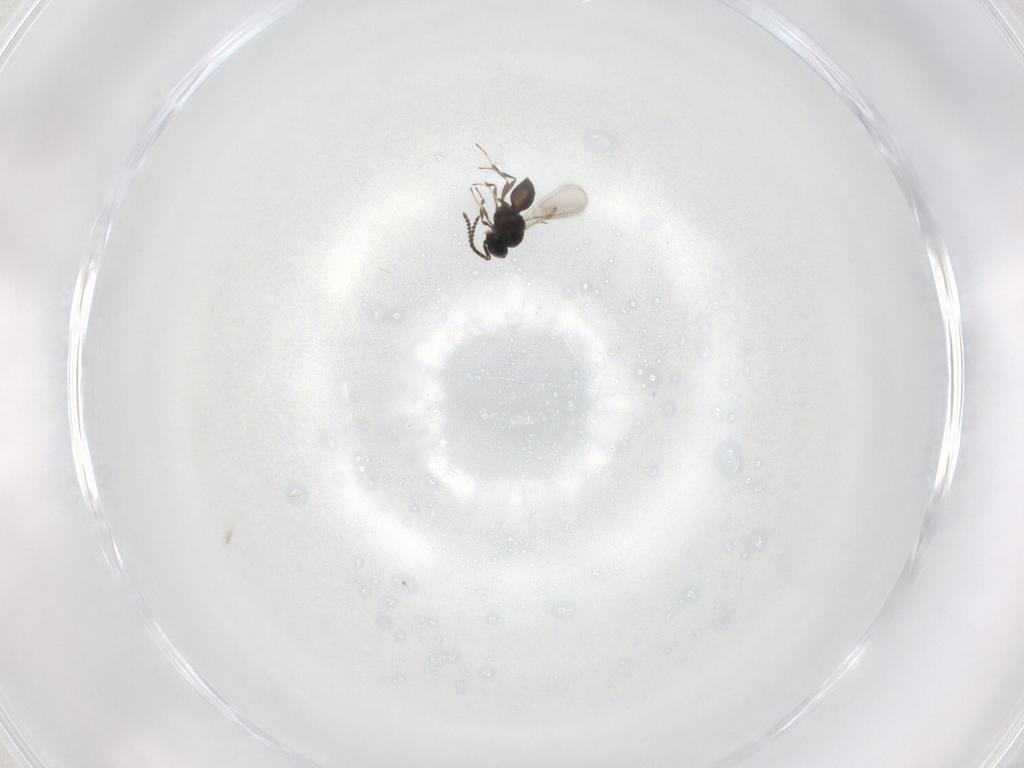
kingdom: Animalia
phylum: Arthropoda
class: Insecta
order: Hymenoptera
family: Scelionidae
